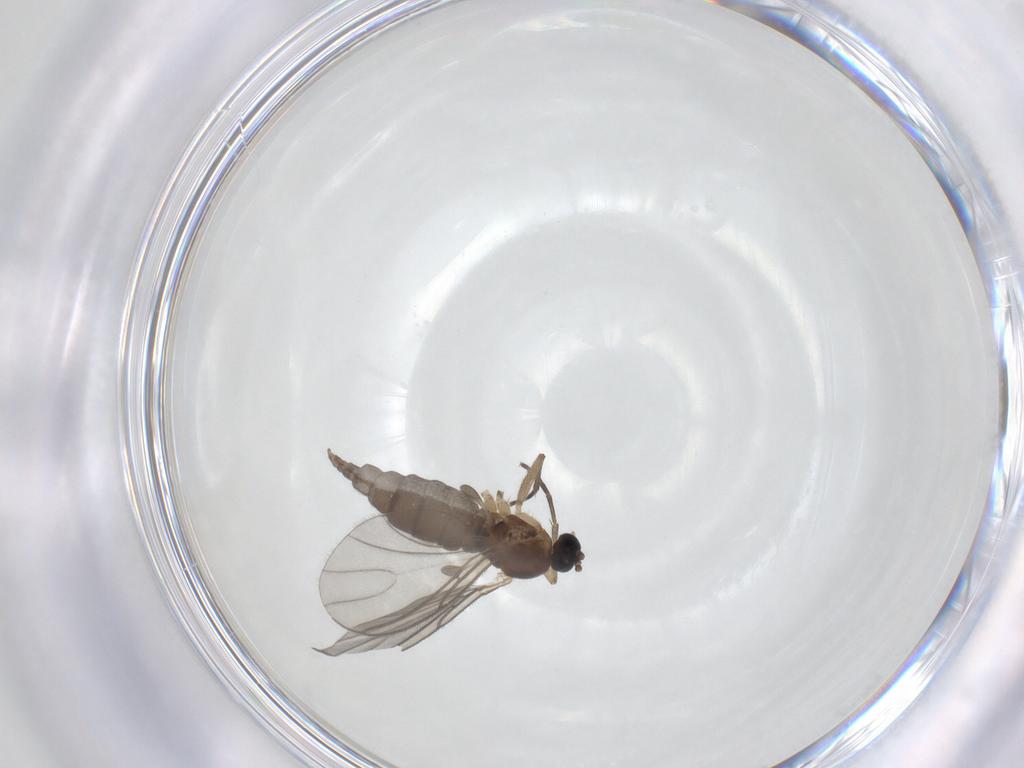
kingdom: Animalia
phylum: Arthropoda
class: Insecta
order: Diptera
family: Sciaridae
